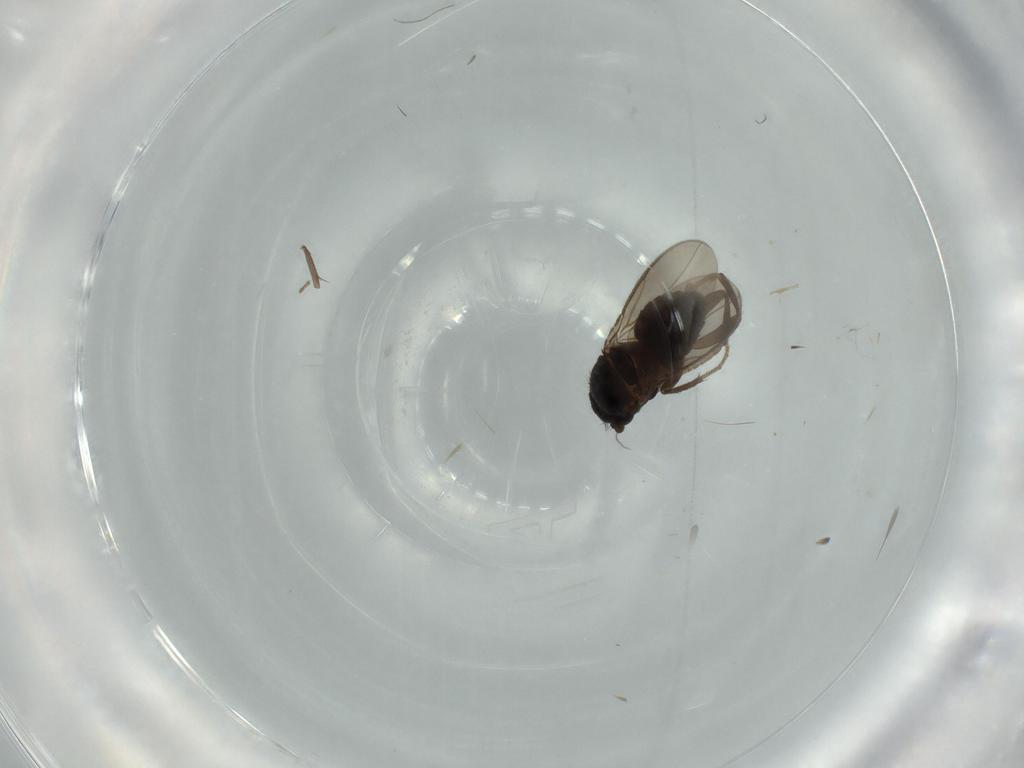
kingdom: Animalia
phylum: Arthropoda
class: Insecta
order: Diptera
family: Sphaeroceridae
